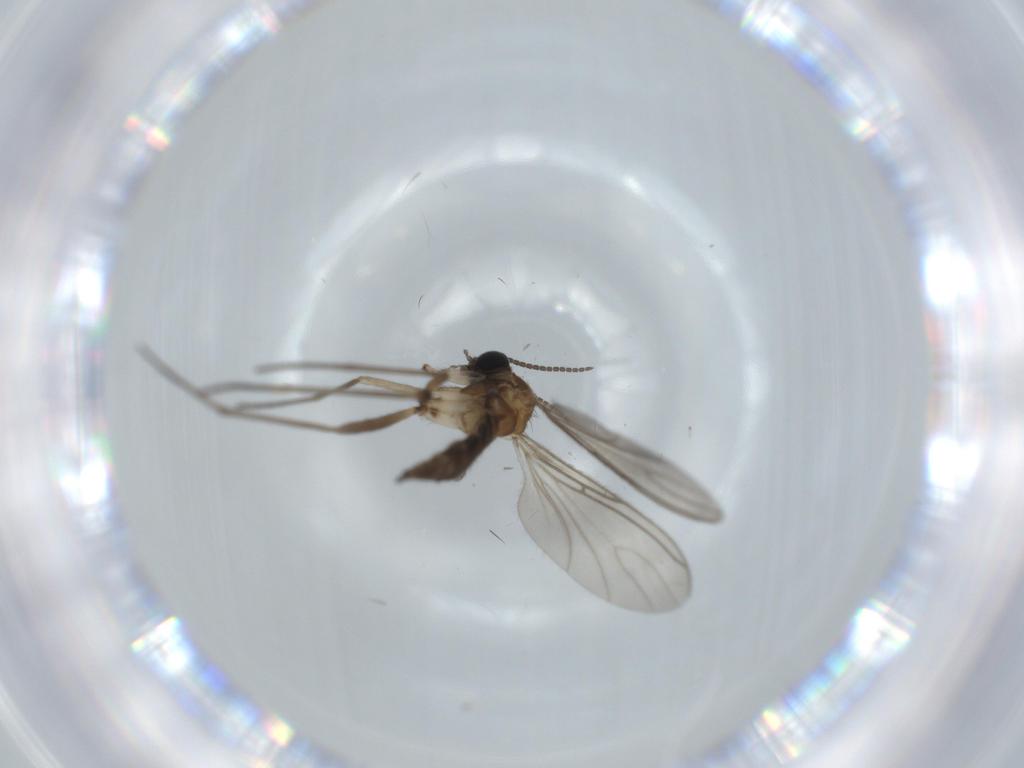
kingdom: Animalia
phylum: Arthropoda
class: Insecta
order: Diptera
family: Sciaridae
